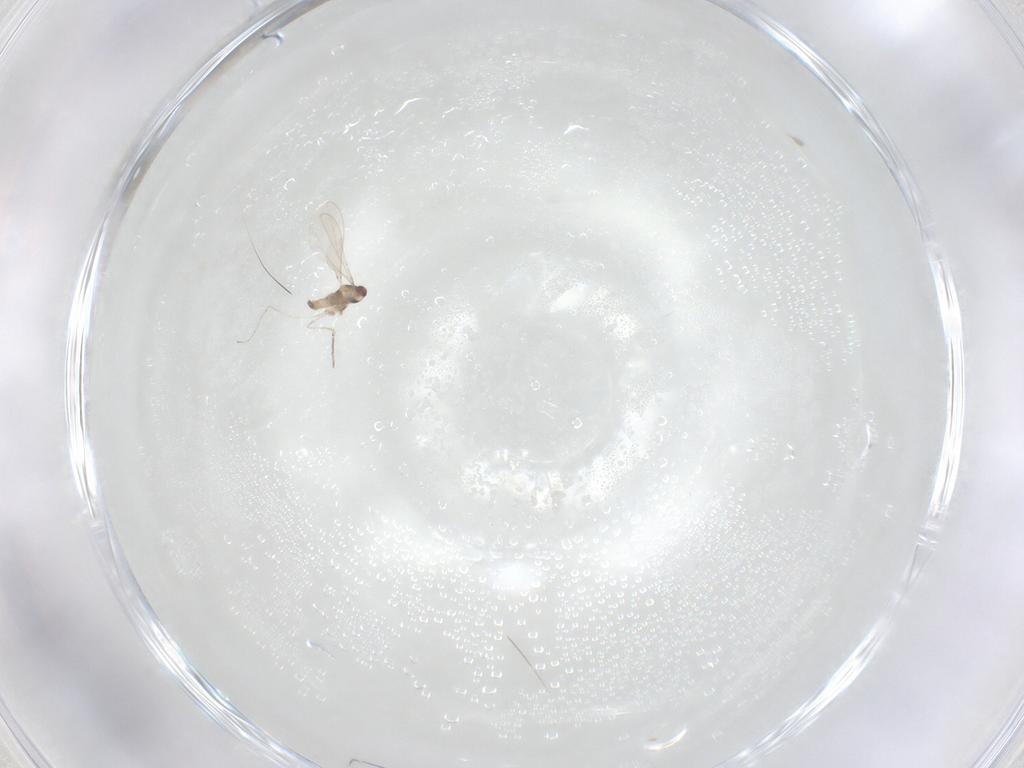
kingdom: Animalia
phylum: Arthropoda
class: Insecta
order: Diptera
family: Cecidomyiidae
